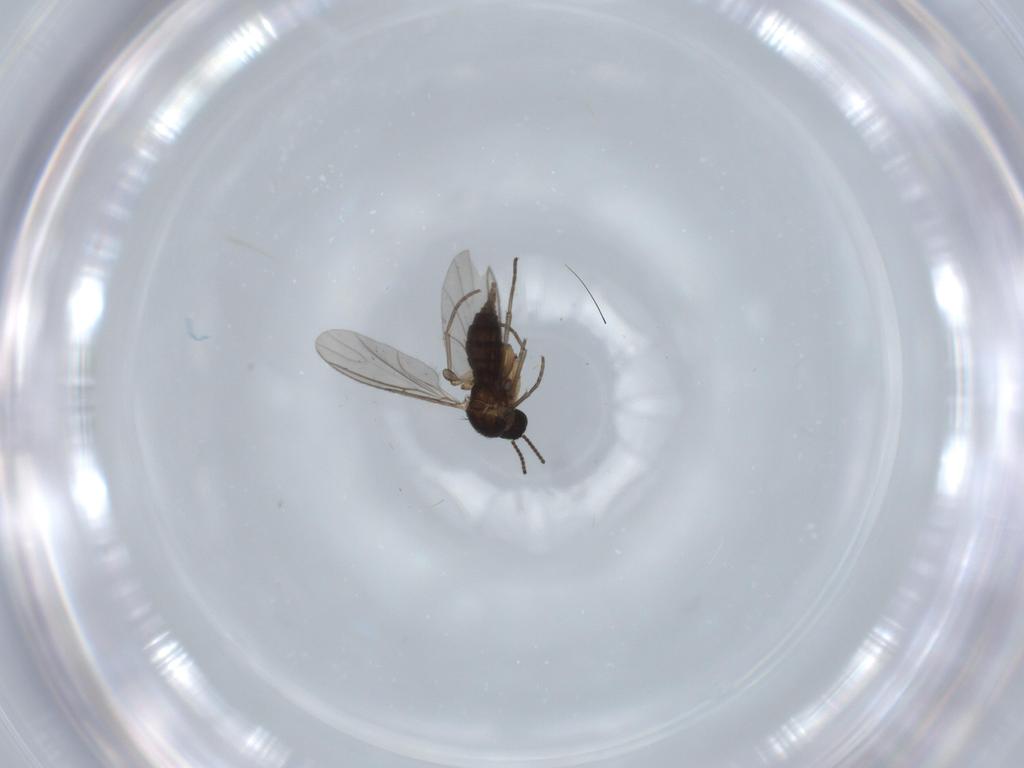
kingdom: Animalia
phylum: Arthropoda
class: Insecta
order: Diptera
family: Sciaridae
